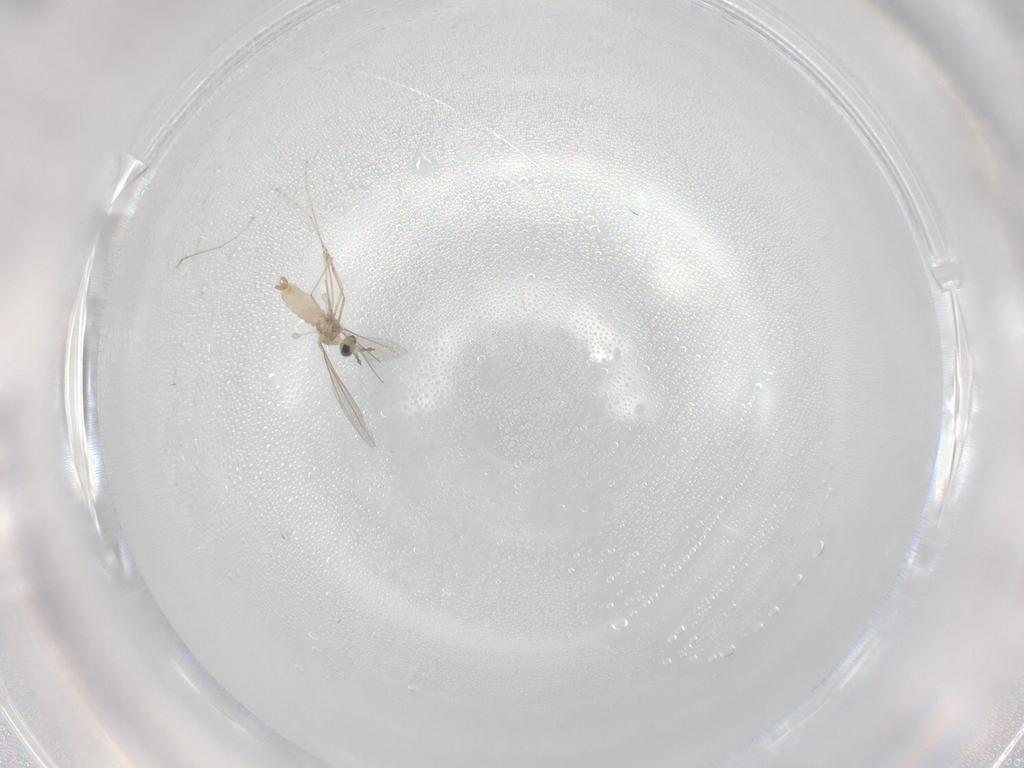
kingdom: Animalia
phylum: Arthropoda
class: Insecta
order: Diptera
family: Cecidomyiidae
